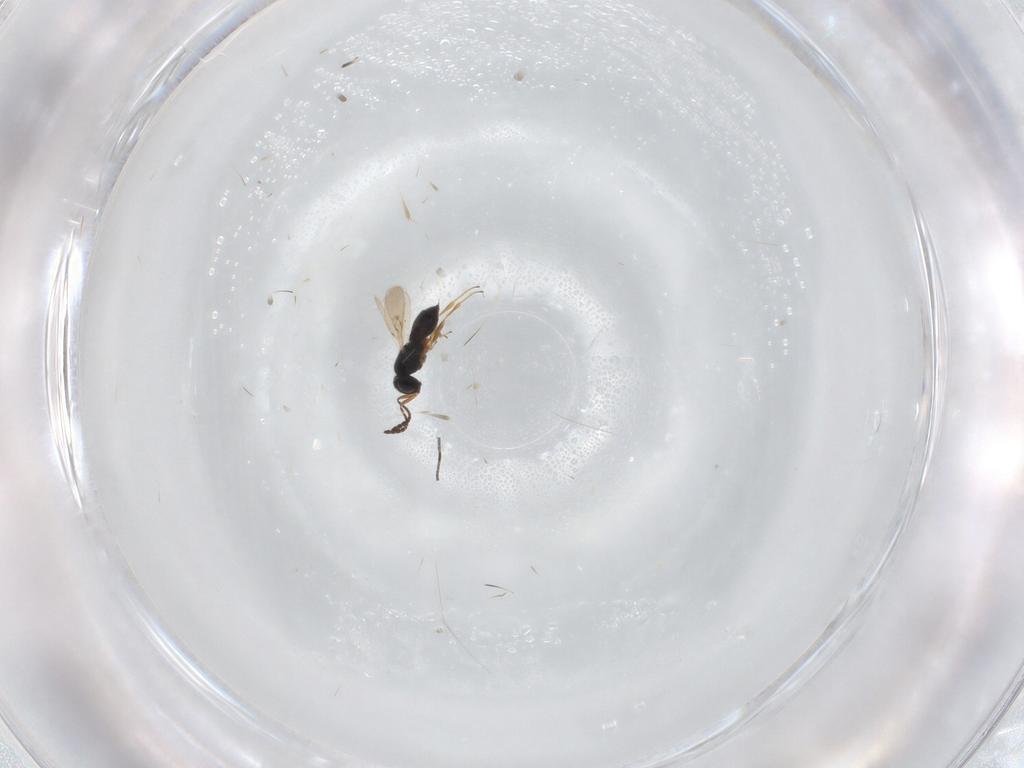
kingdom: Animalia
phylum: Arthropoda
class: Insecta
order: Hymenoptera
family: Scelionidae
